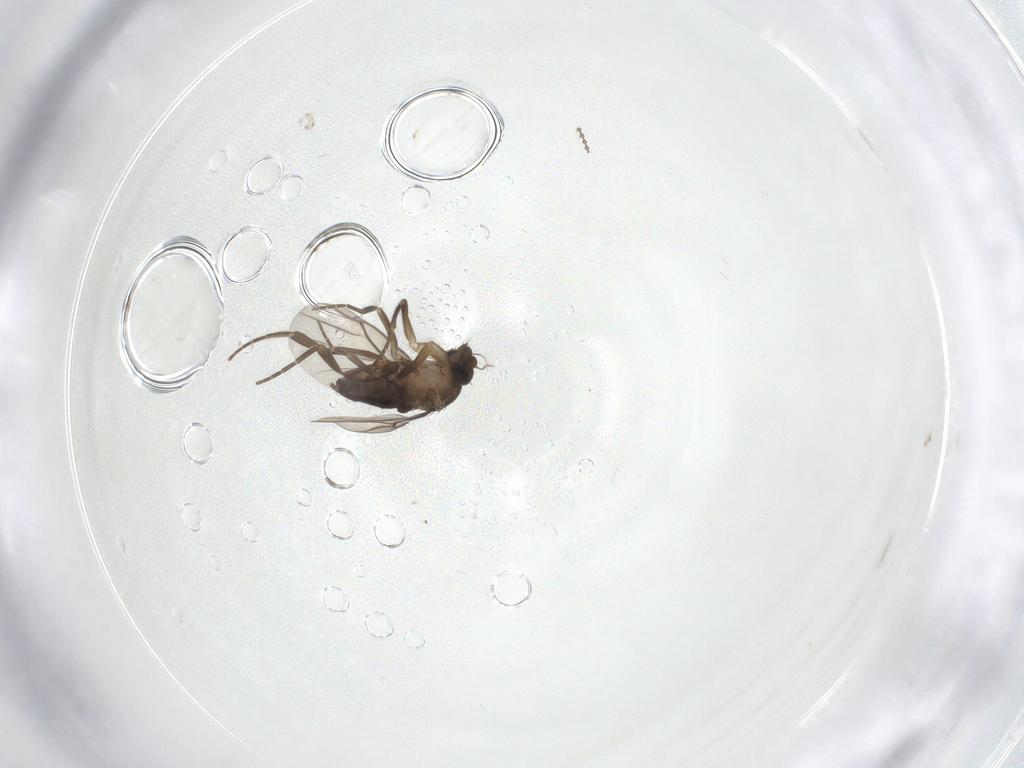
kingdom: Animalia
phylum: Arthropoda
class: Insecta
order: Diptera
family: Cecidomyiidae
